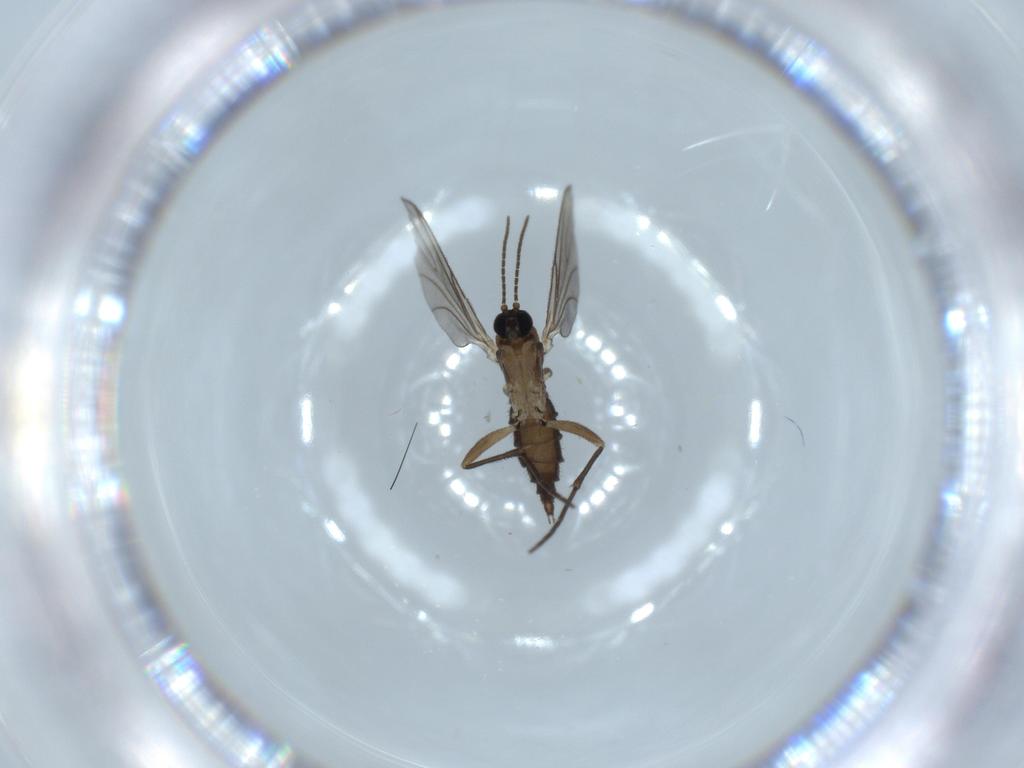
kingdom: Animalia
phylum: Arthropoda
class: Insecta
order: Diptera
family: Sciaridae
